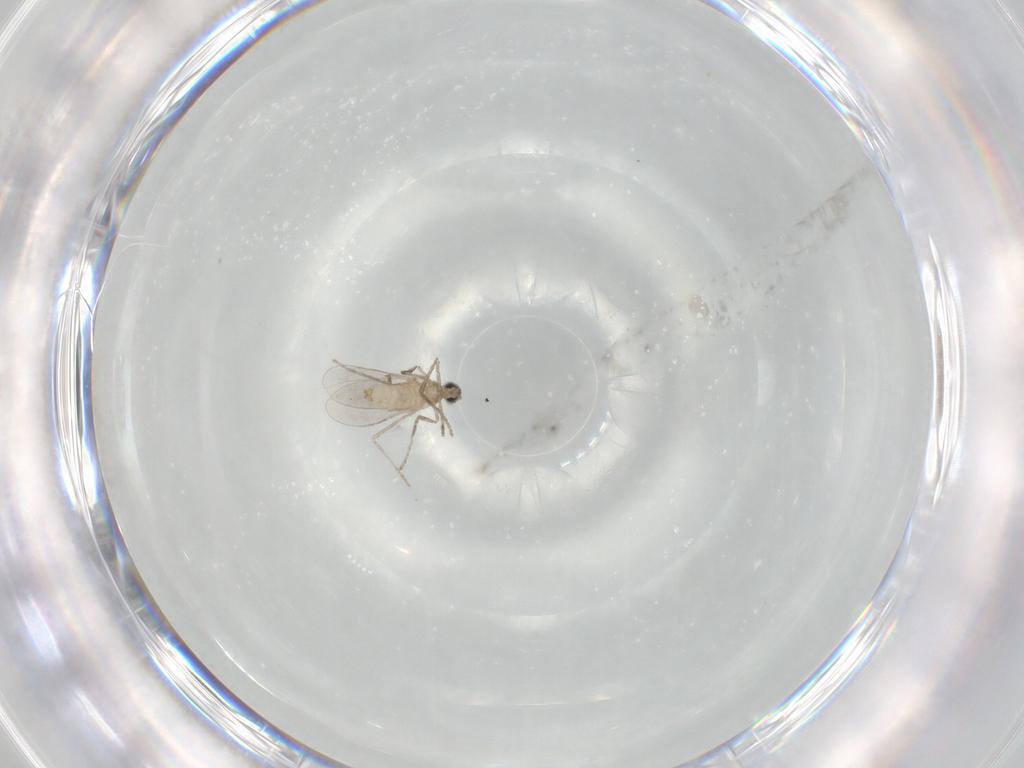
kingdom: Animalia
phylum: Arthropoda
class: Insecta
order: Diptera
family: Cecidomyiidae
